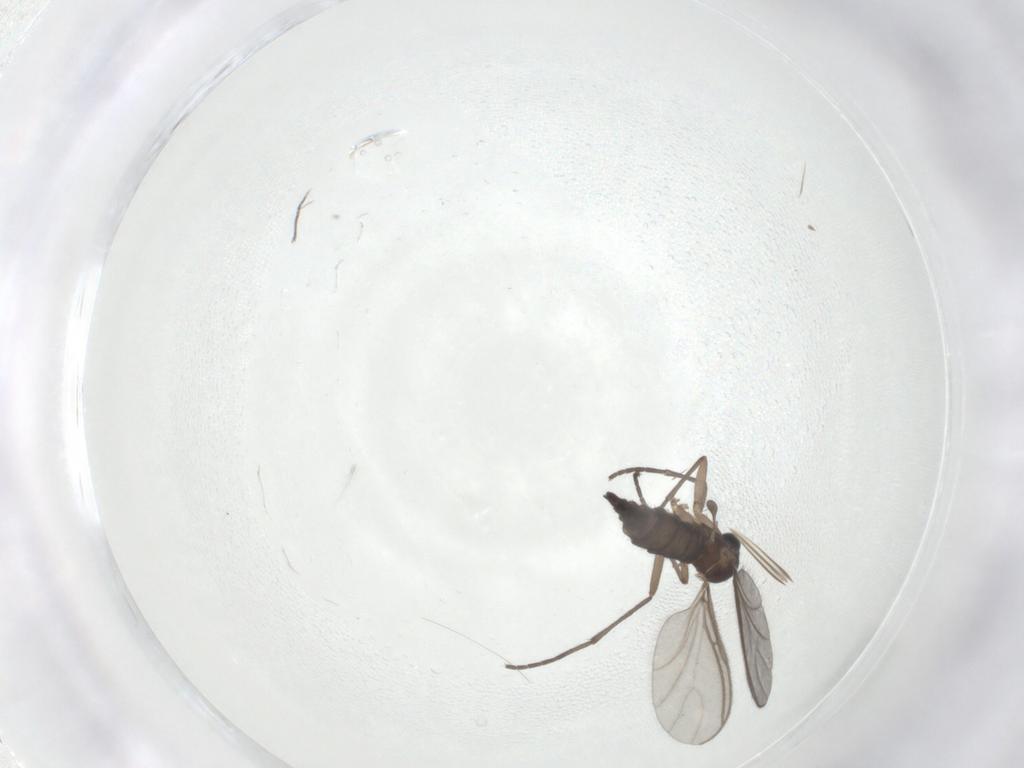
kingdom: Animalia
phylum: Arthropoda
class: Insecta
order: Diptera
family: Sciaridae
